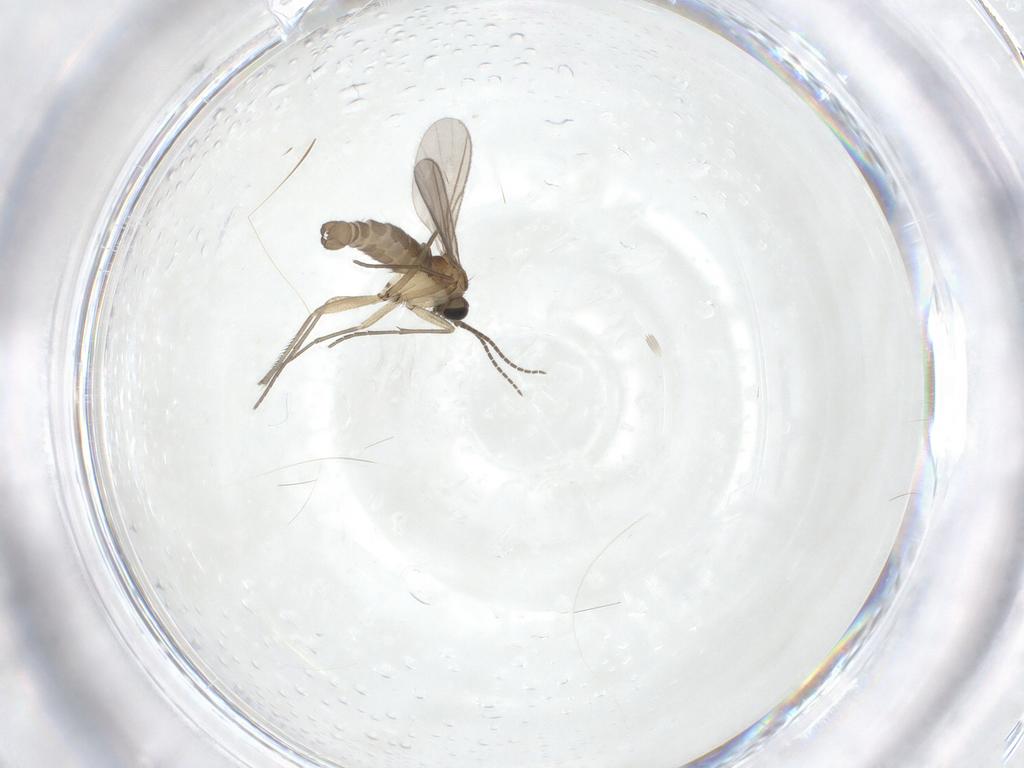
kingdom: Animalia
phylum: Arthropoda
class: Insecta
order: Diptera
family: Sciaridae
